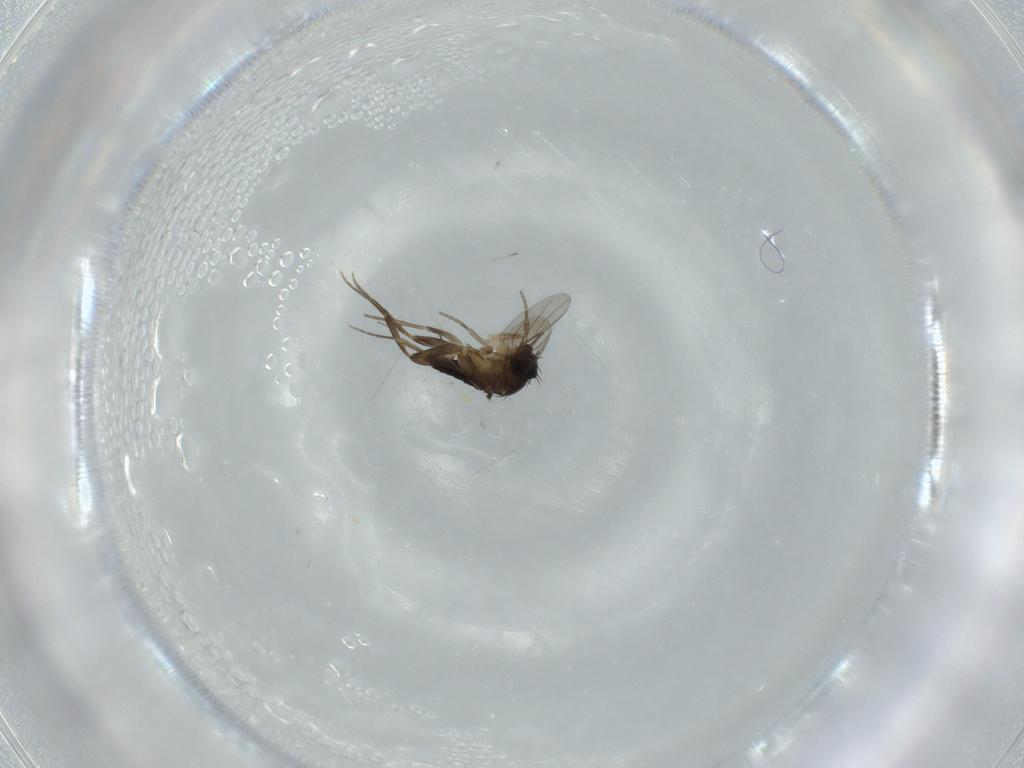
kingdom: Animalia
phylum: Arthropoda
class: Insecta
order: Diptera
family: Phoridae
